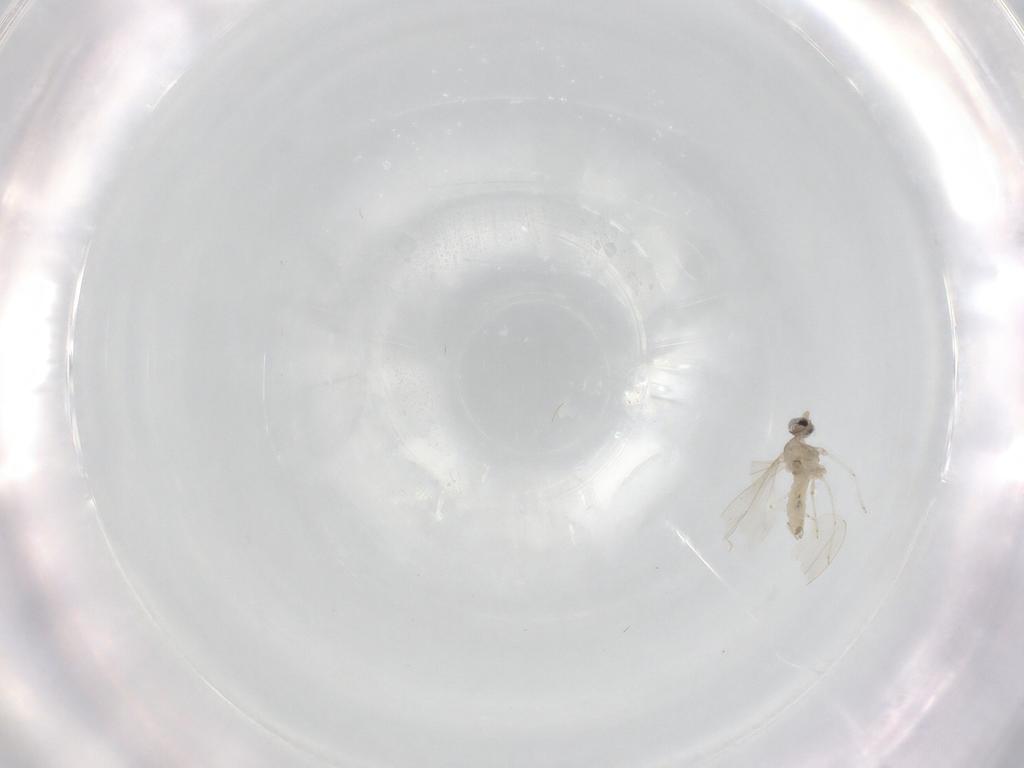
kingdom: Animalia
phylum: Arthropoda
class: Insecta
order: Diptera
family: Cecidomyiidae
